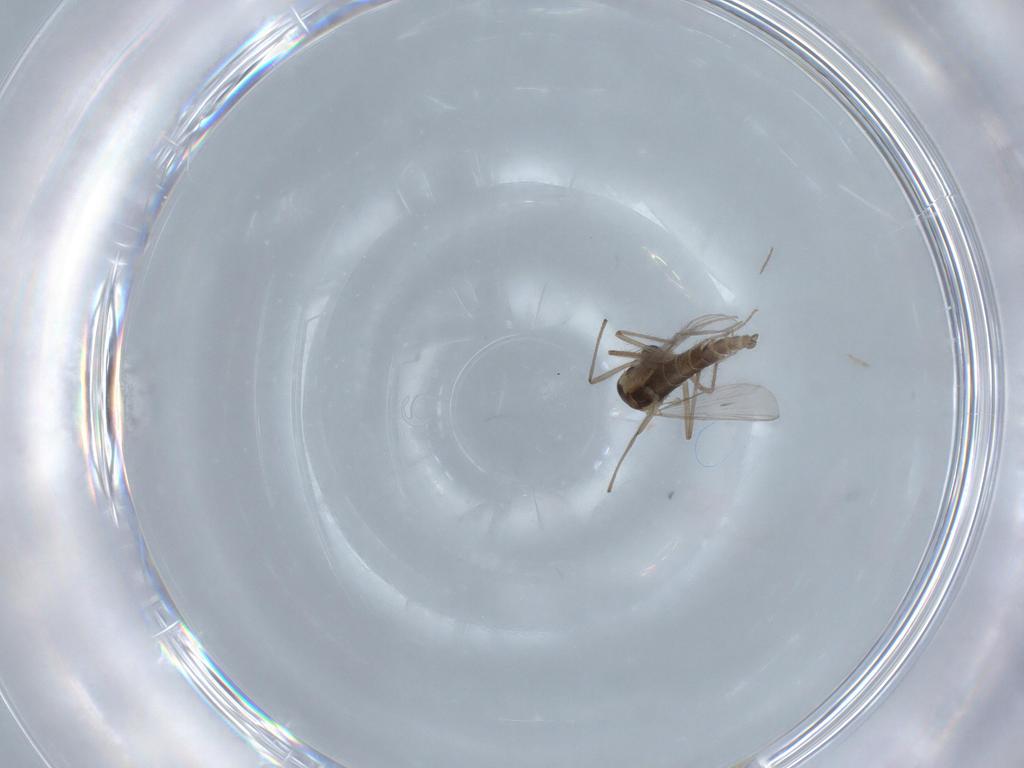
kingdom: Animalia
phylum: Arthropoda
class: Insecta
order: Diptera
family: Chironomidae
